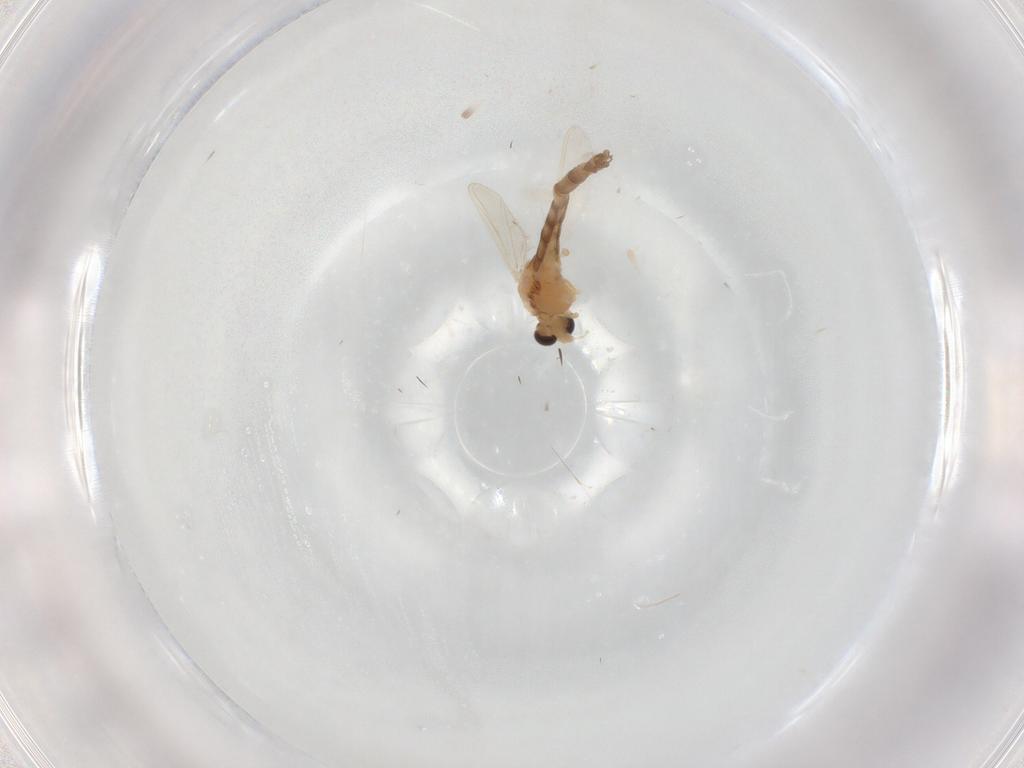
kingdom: Animalia
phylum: Arthropoda
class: Insecta
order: Diptera
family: Chironomidae
